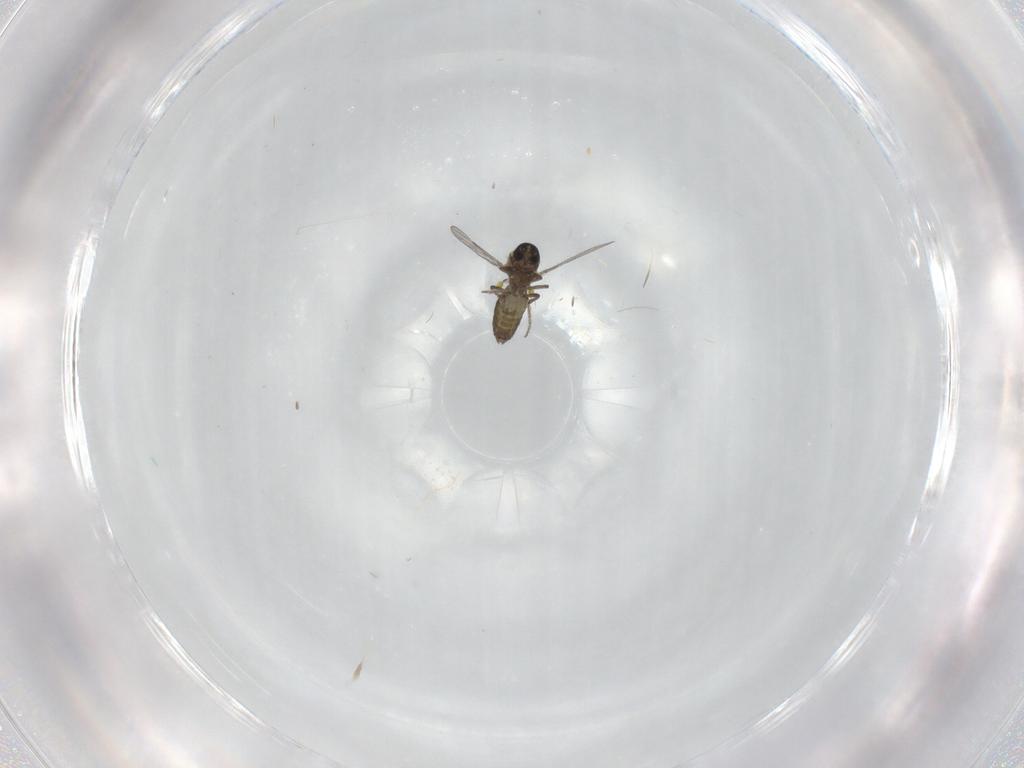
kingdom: Animalia
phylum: Arthropoda
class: Insecta
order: Diptera
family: Ceratopogonidae
